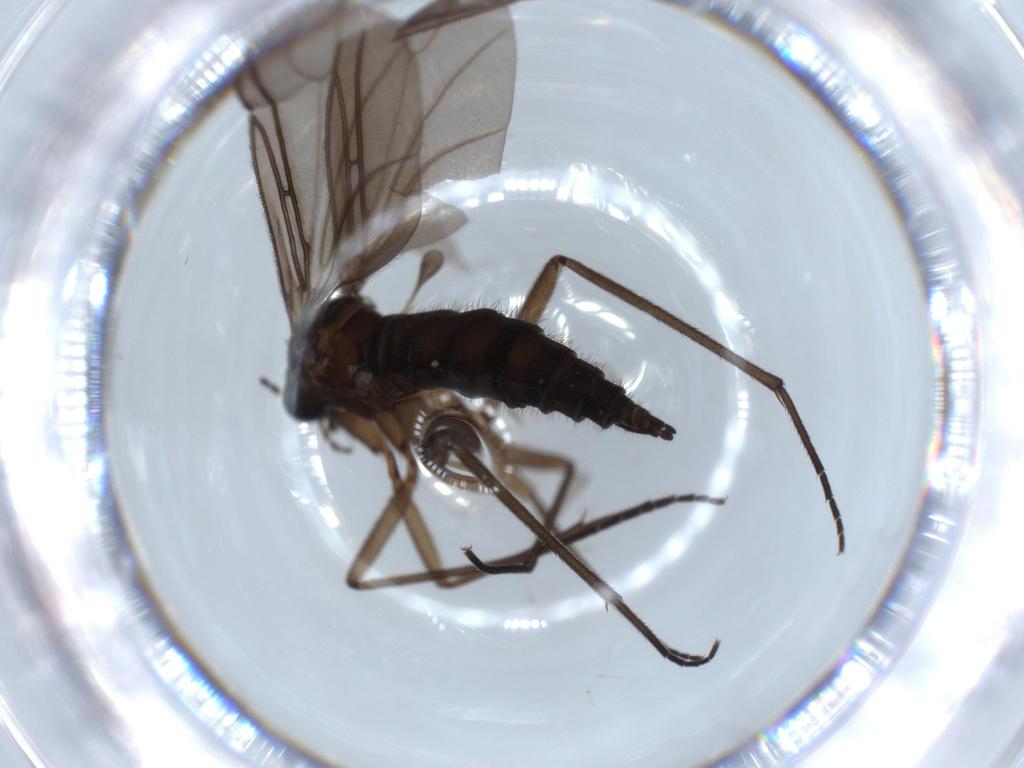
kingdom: Animalia
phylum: Arthropoda
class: Insecta
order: Diptera
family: Sciaridae
